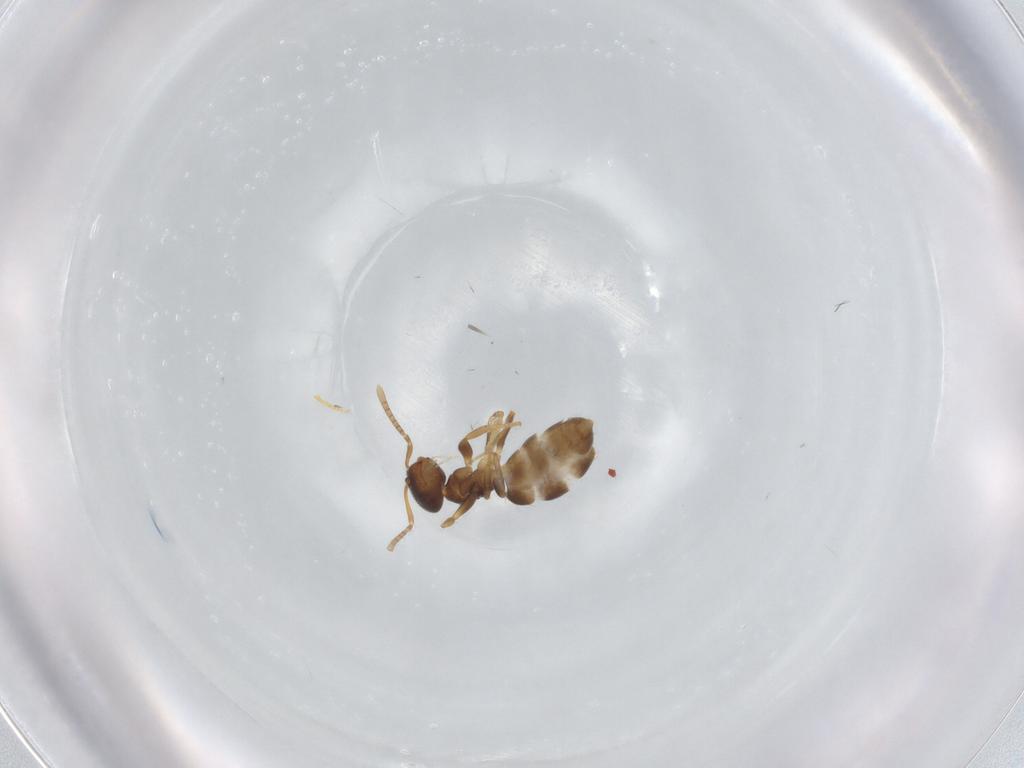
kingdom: Animalia
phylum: Arthropoda
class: Insecta
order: Hymenoptera
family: Formicidae
